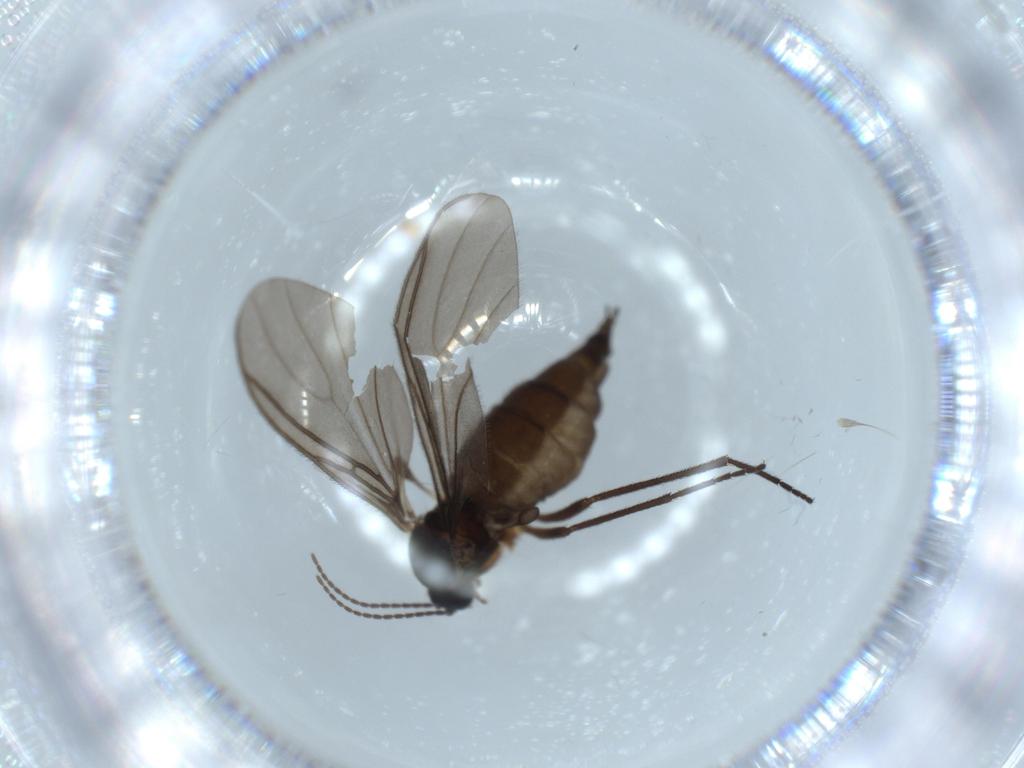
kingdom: Animalia
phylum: Arthropoda
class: Insecta
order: Diptera
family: Sciaridae
